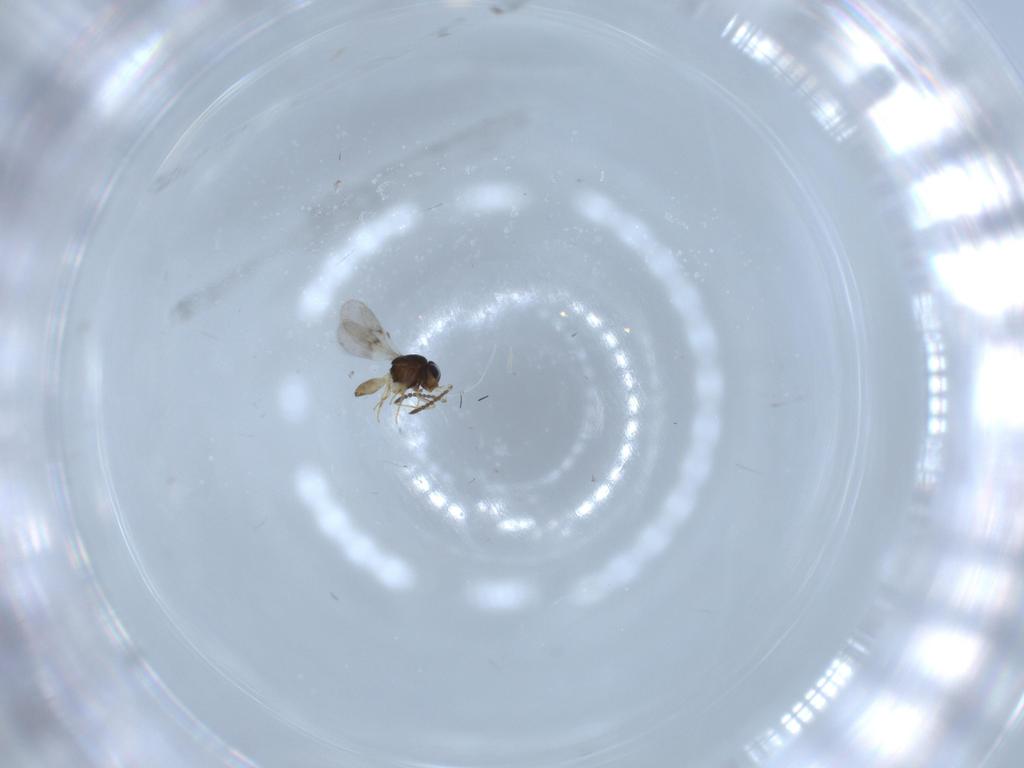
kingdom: Animalia
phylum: Arthropoda
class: Insecta
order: Hymenoptera
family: Scelionidae
